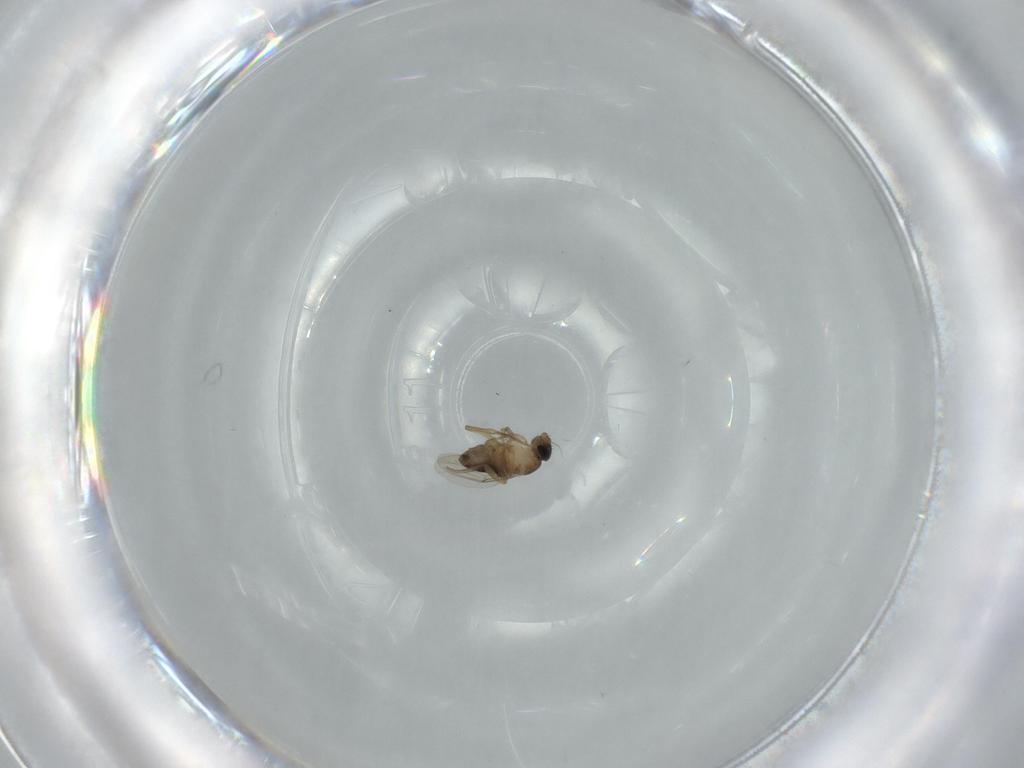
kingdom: Animalia
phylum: Arthropoda
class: Insecta
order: Diptera
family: Phoridae
